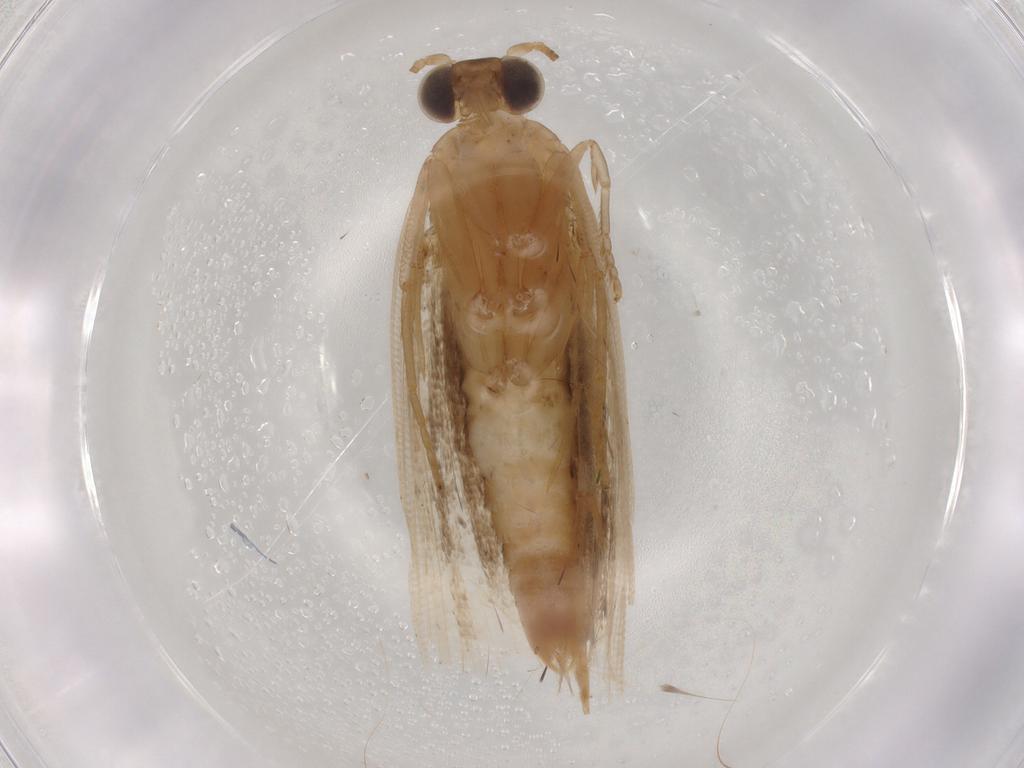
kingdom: Animalia
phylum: Arthropoda
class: Insecta
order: Lepidoptera
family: Tortricidae
